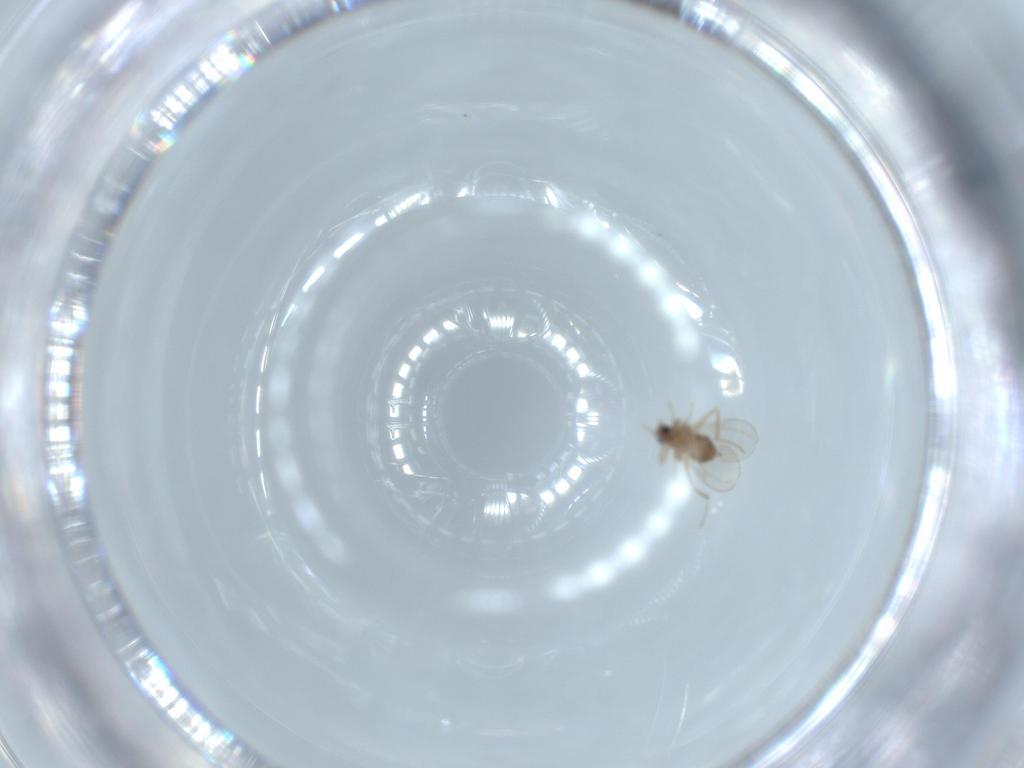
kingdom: Animalia
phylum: Arthropoda
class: Insecta
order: Diptera
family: Cecidomyiidae
